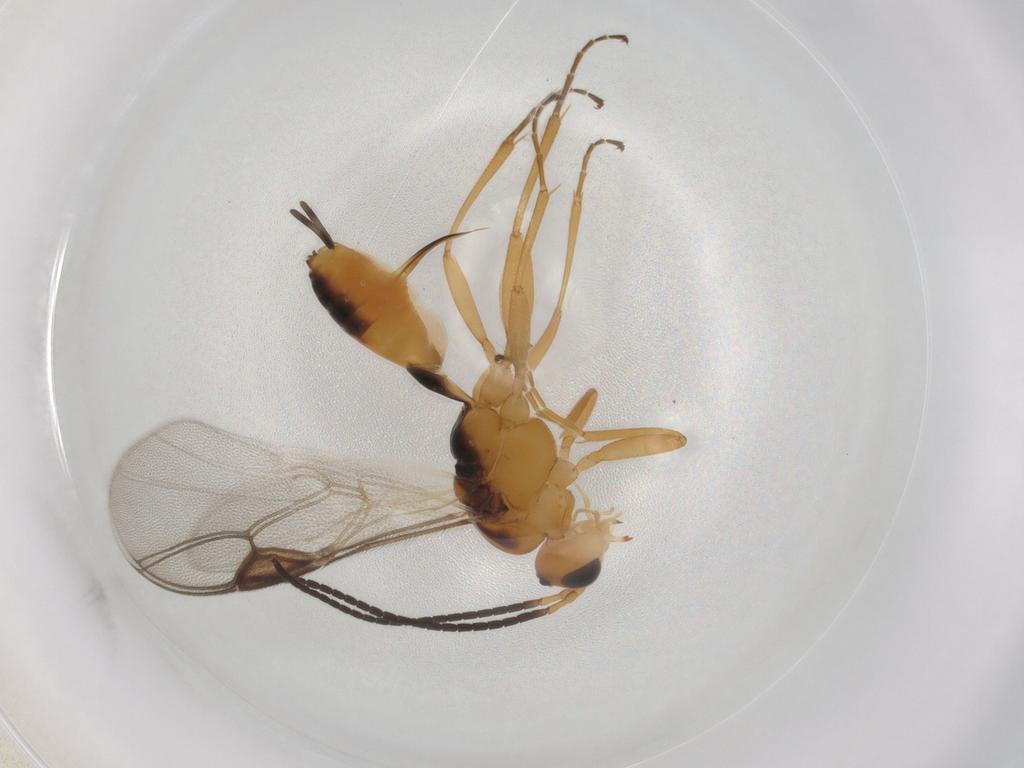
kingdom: Animalia
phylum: Arthropoda
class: Insecta
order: Hymenoptera
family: Braconidae
